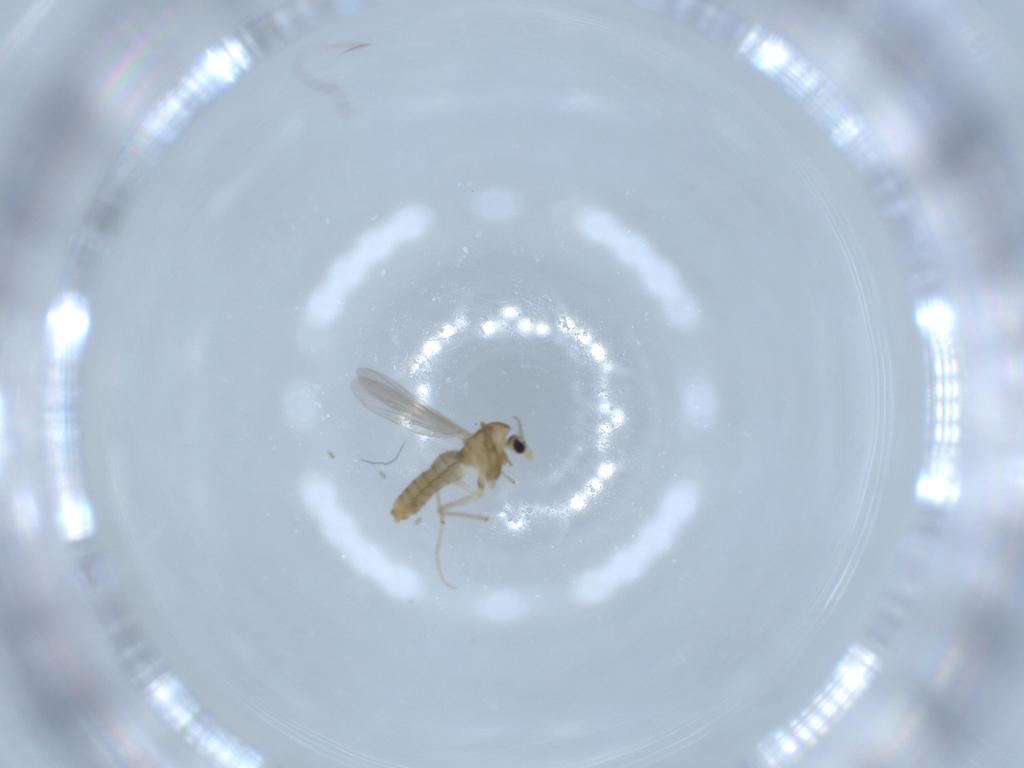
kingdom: Animalia
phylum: Arthropoda
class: Insecta
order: Diptera
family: Chironomidae
